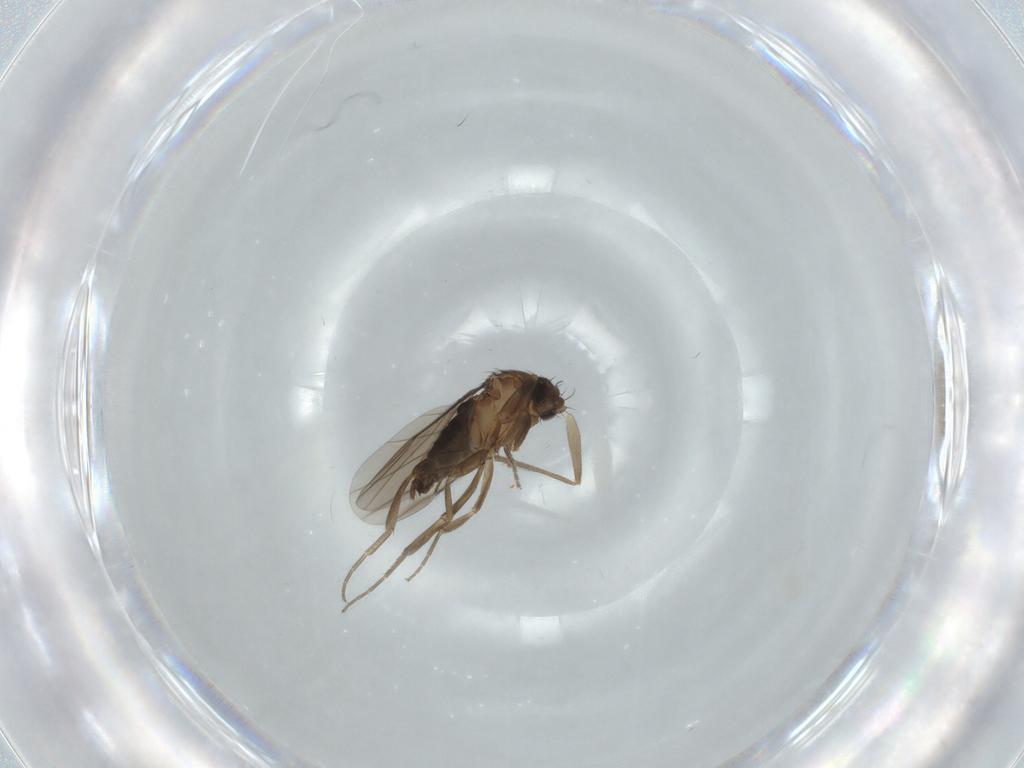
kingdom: Animalia
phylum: Arthropoda
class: Insecta
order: Diptera
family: Phoridae
